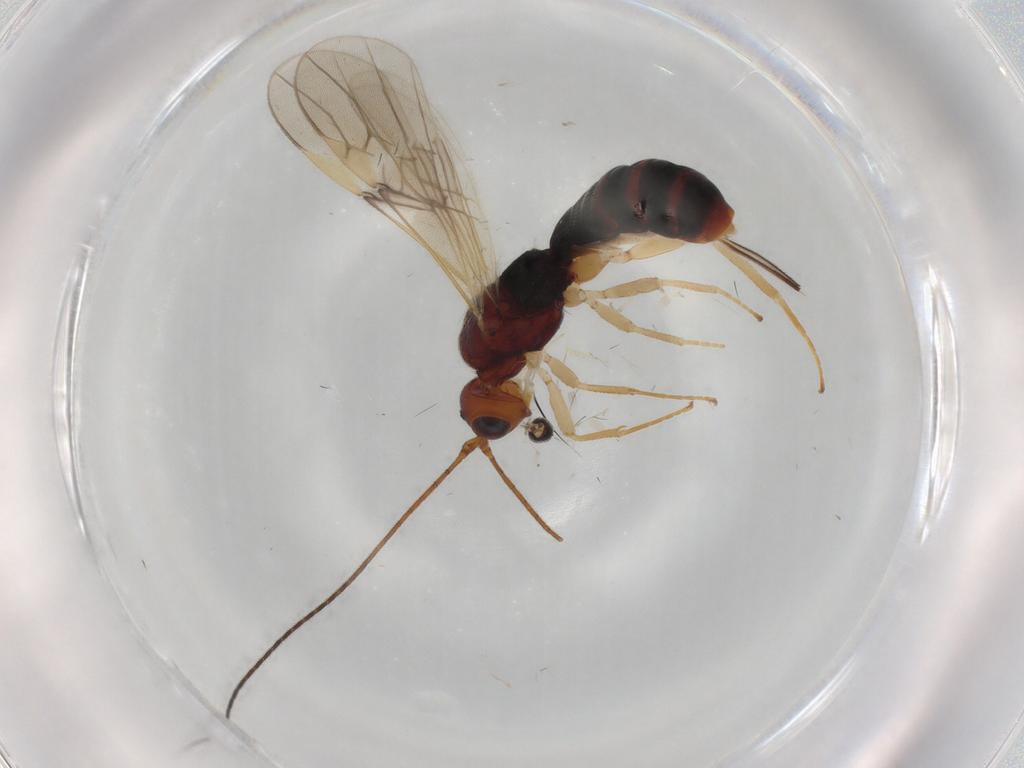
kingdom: Animalia
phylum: Arthropoda
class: Insecta
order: Hymenoptera
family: Braconidae
